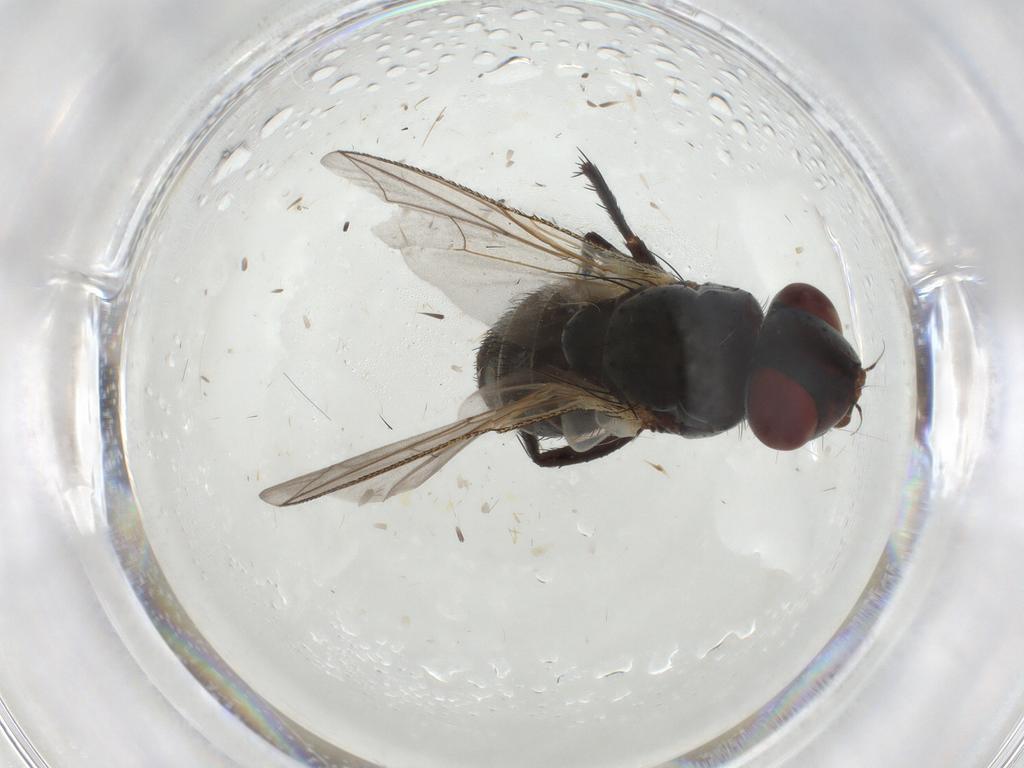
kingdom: Animalia
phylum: Arthropoda
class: Insecta
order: Diptera
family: Sarcophagidae
